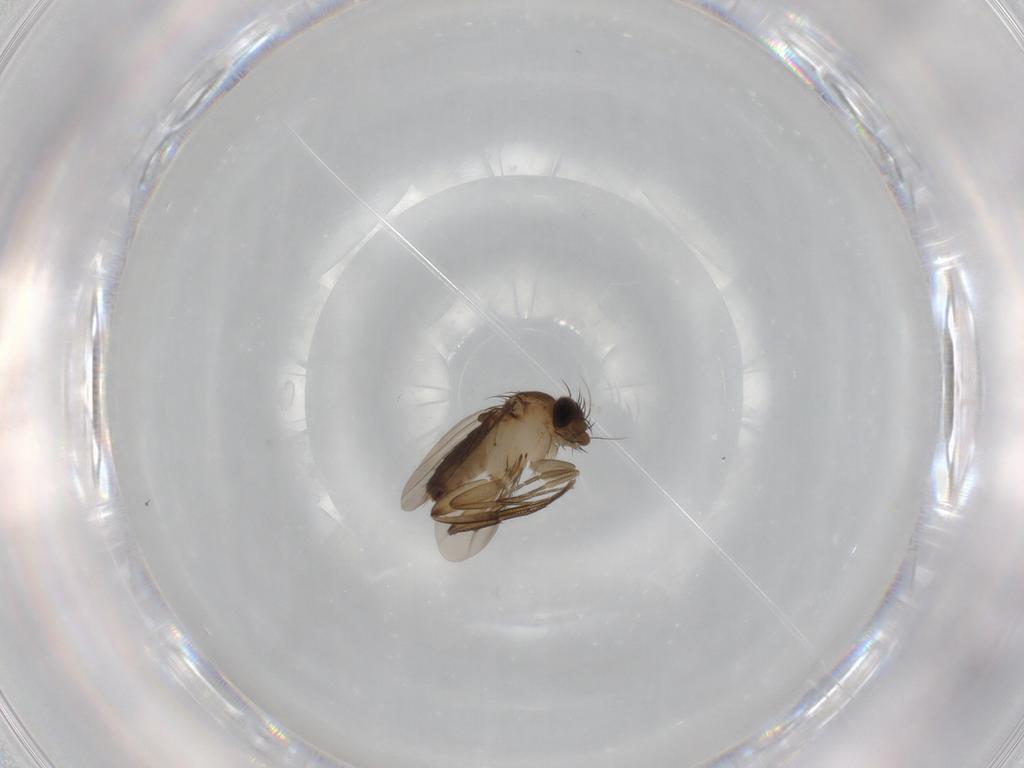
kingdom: Animalia
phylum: Arthropoda
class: Insecta
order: Diptera
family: Phoridae
